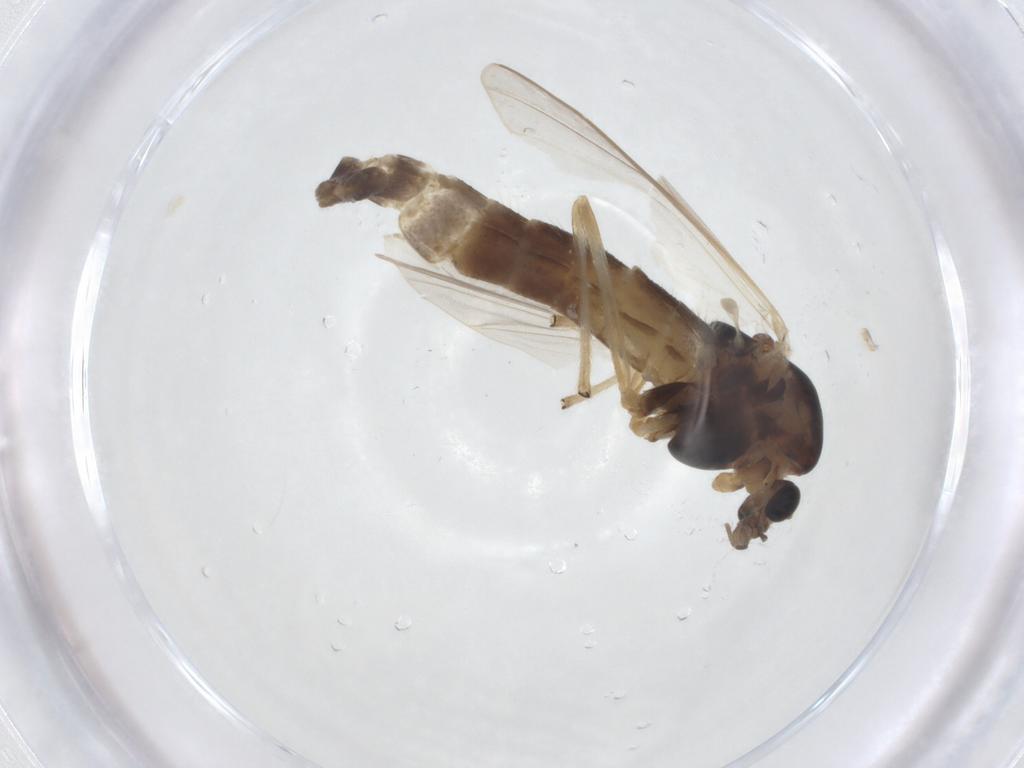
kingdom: Animalia
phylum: Arthropoda
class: Insecta
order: Diptera
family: Chironomidae
